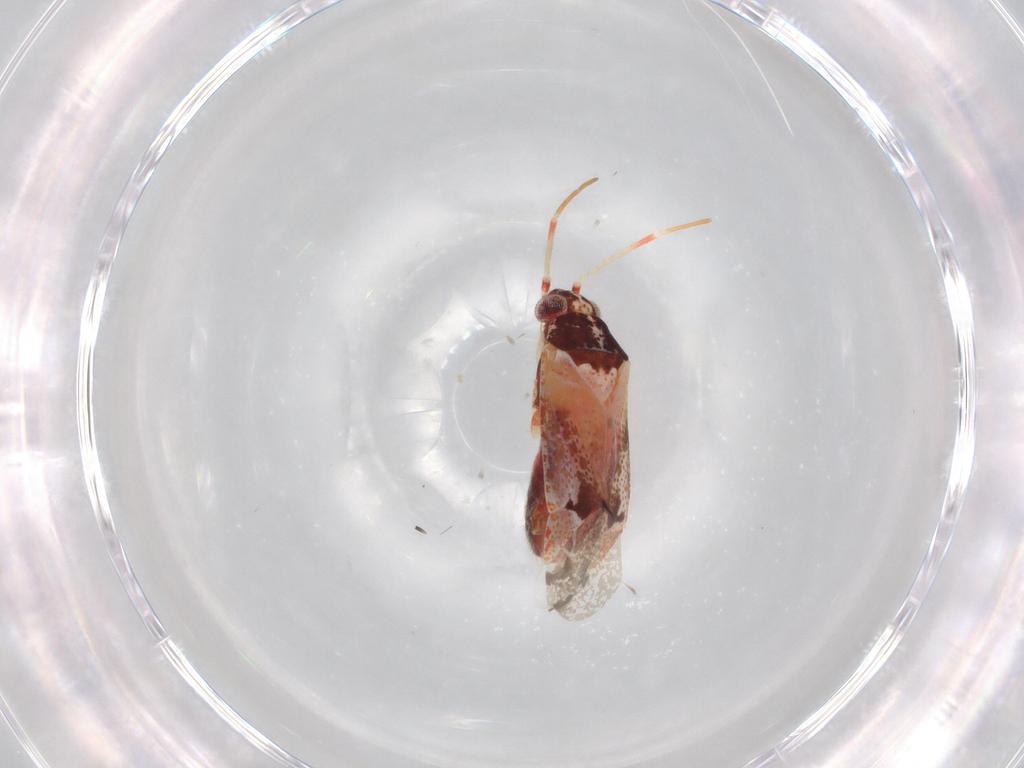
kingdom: Animalia
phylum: Arthropoda
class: Insecta
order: Hemiptera
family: Miridae
